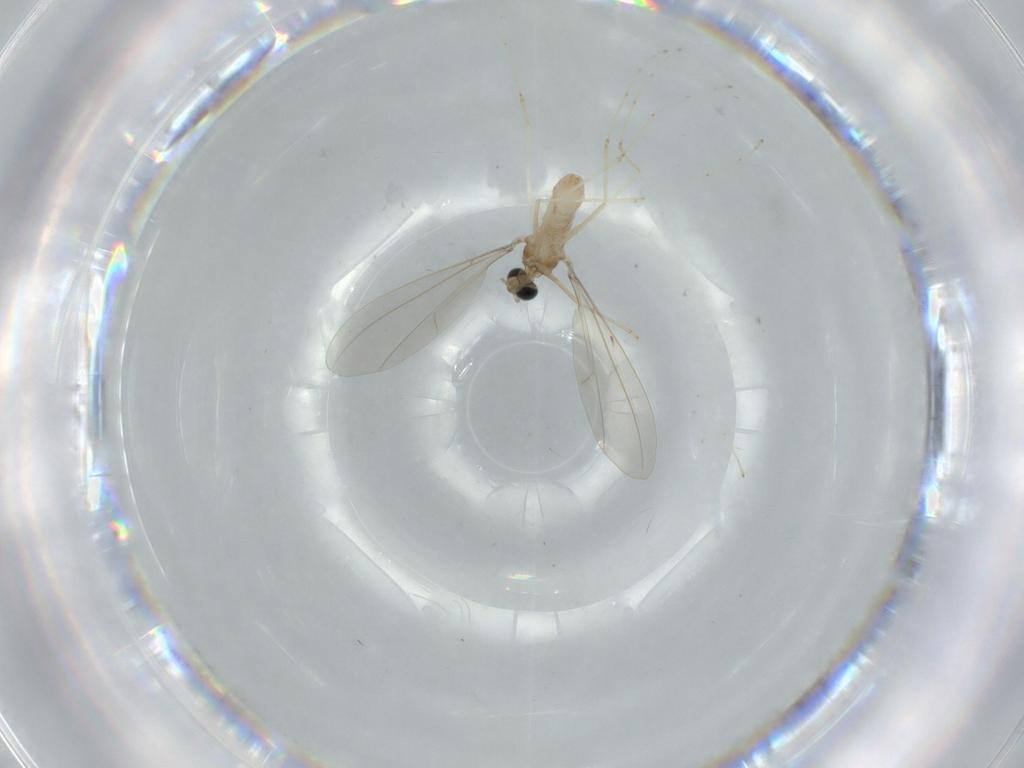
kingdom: Animalia
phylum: Arthropoda
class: Insecta
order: Diptera
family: Cecidomyiidae
